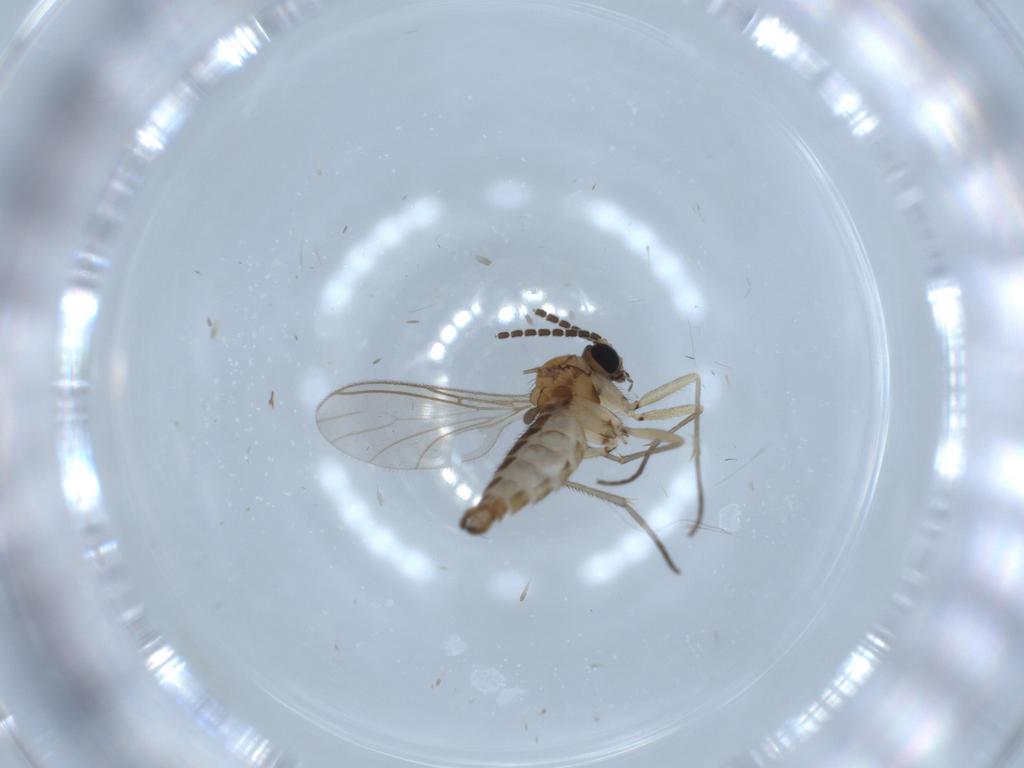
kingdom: Animalia
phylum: Arthropoda
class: Insecta
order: Diptera
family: Sciaridae
